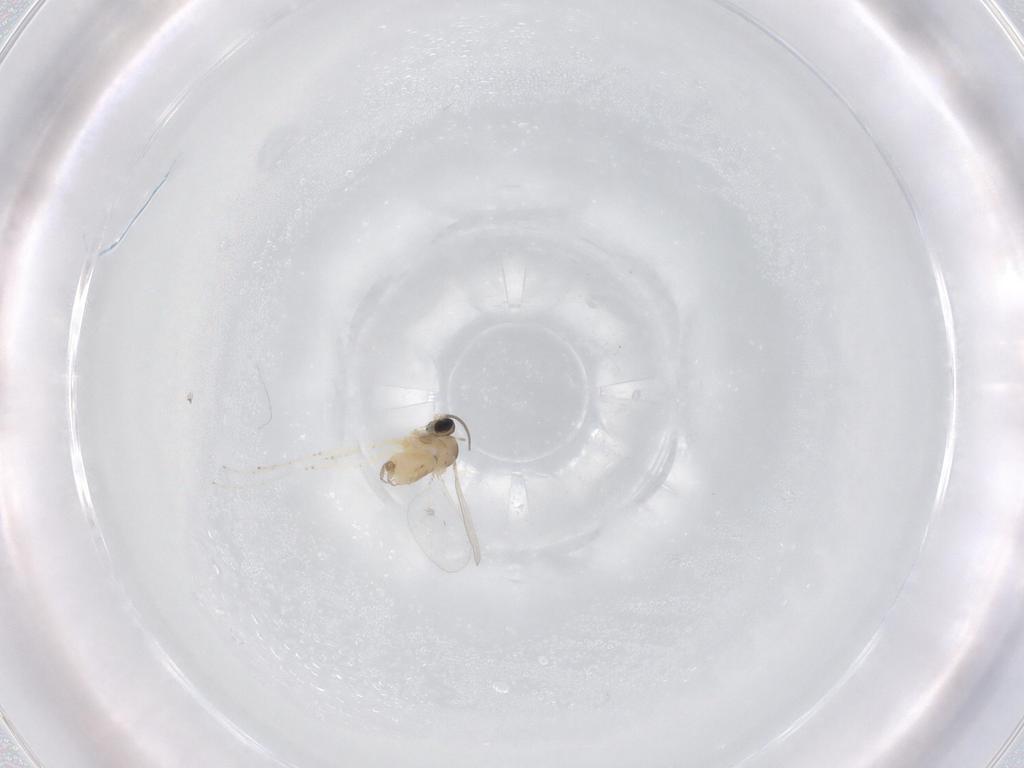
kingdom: Animalia
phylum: Arthropoda
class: Insecta
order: Diptera
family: Cecidomyiidae
